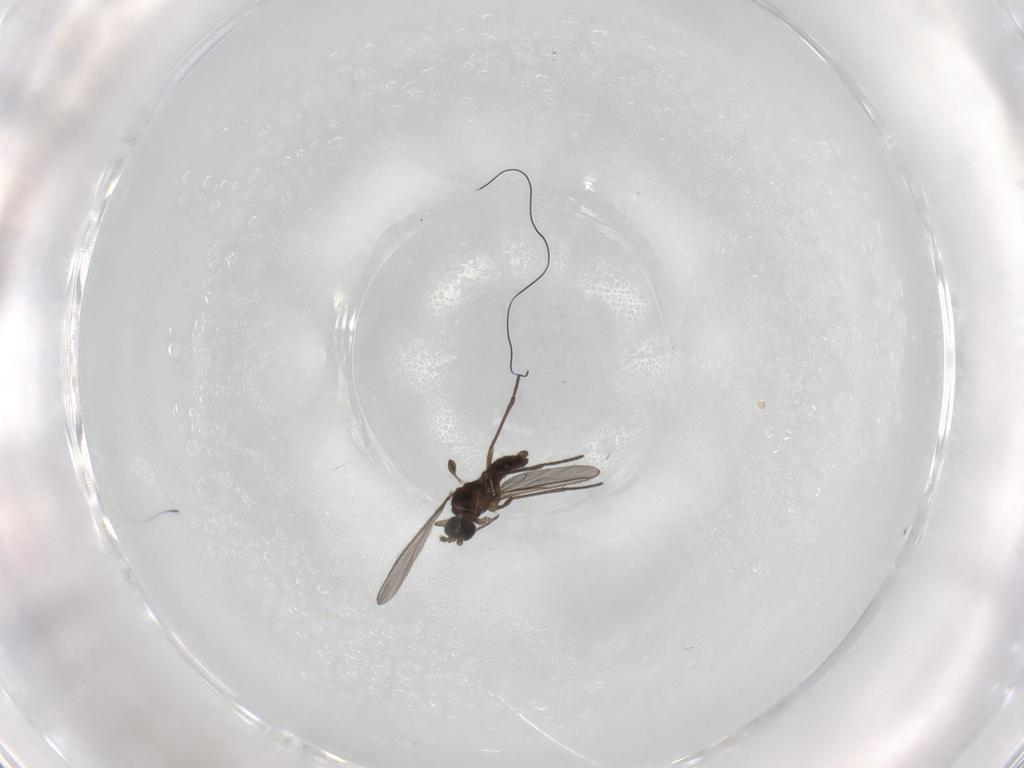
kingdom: Animalia
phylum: Arthropoda
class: Insecta
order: Diptera
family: Sciaridae
